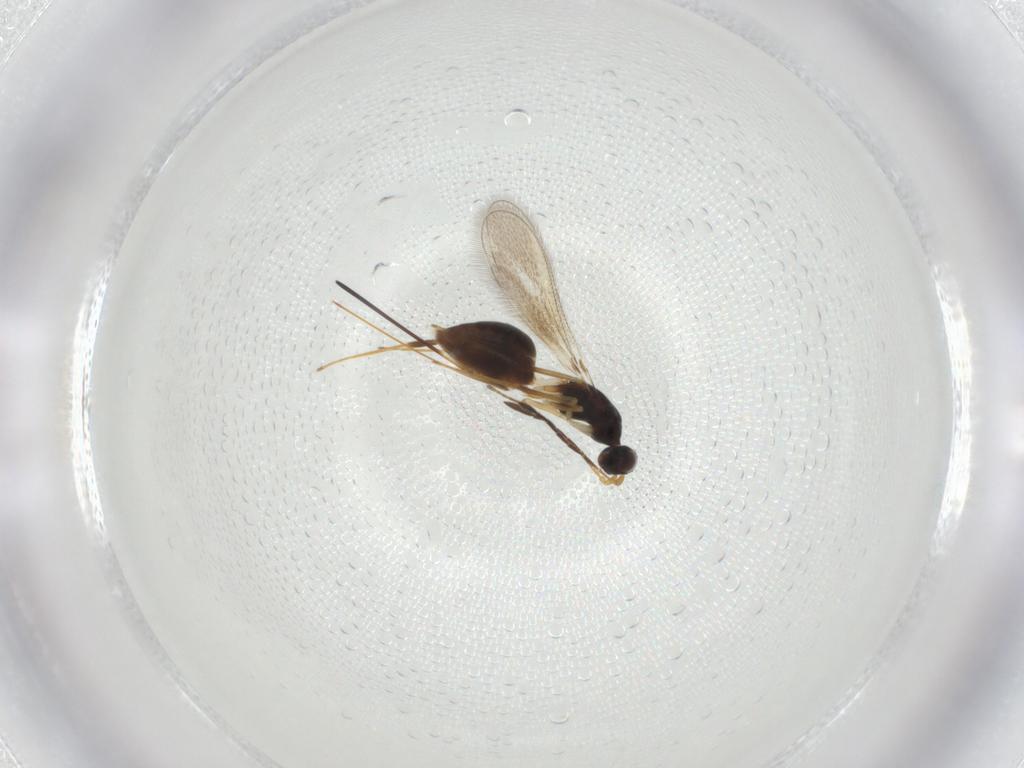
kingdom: Animalia
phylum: Arthropoda
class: Insecta
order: Hymenoptera
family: Mymaridae
